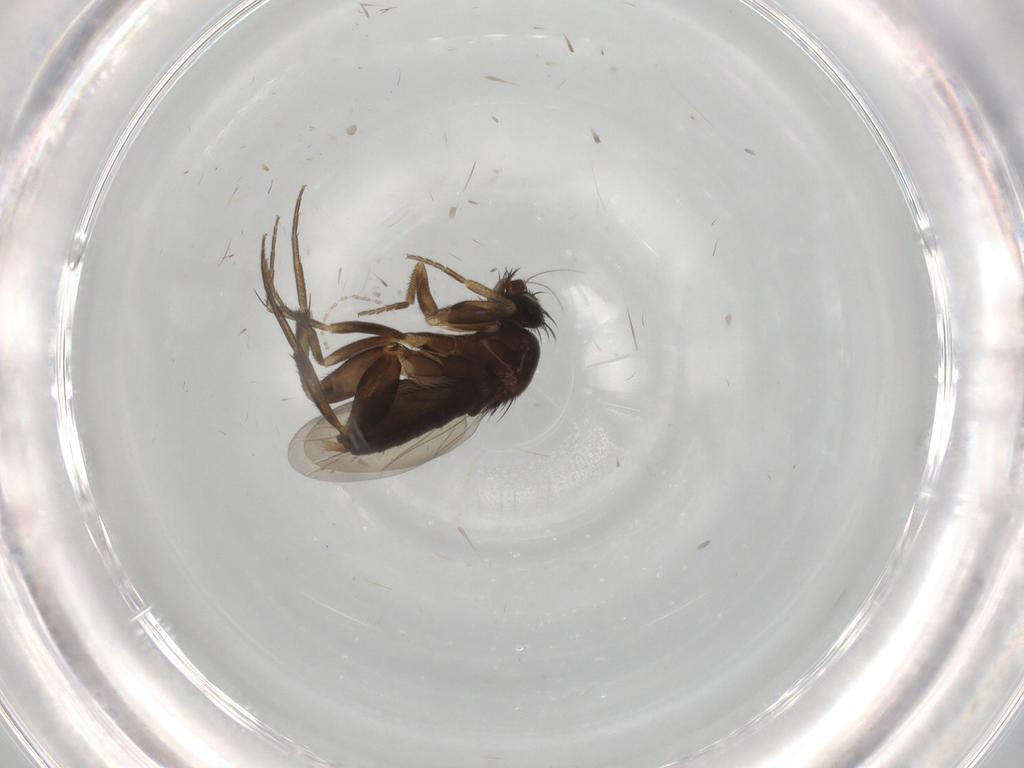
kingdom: Animalia
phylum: Arthropoda
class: Insecta
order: Diptera
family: Phoridae
